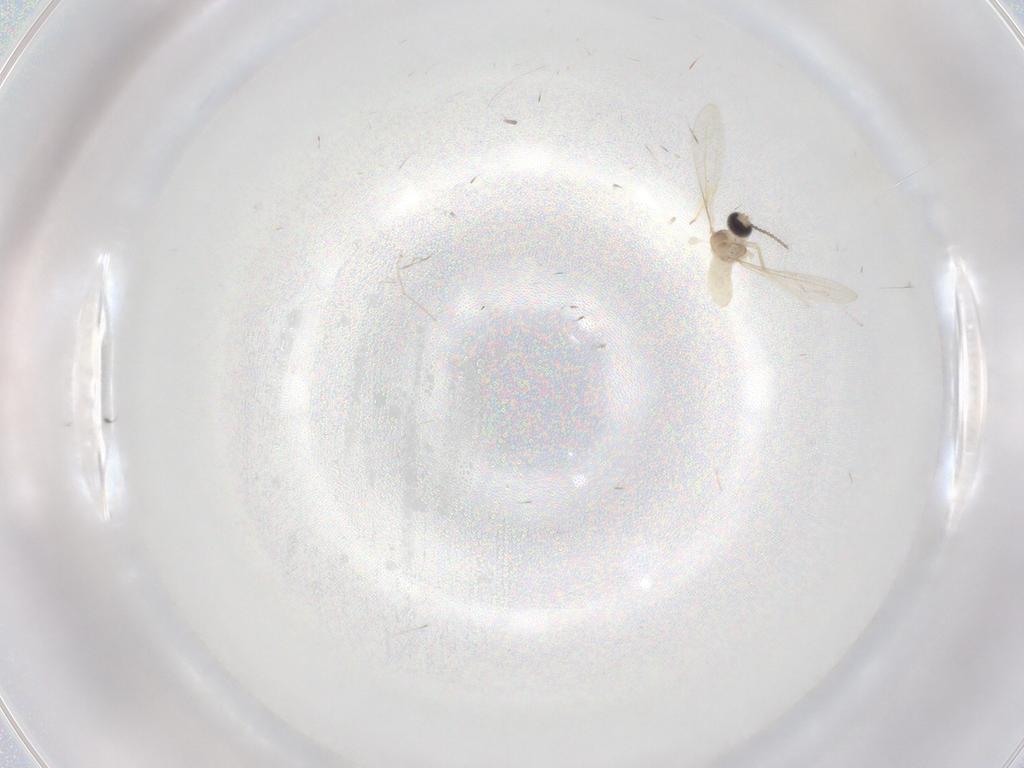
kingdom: Animalia
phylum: Arthropoda
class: Insecta
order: Diptera
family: Cecidomyiidae
